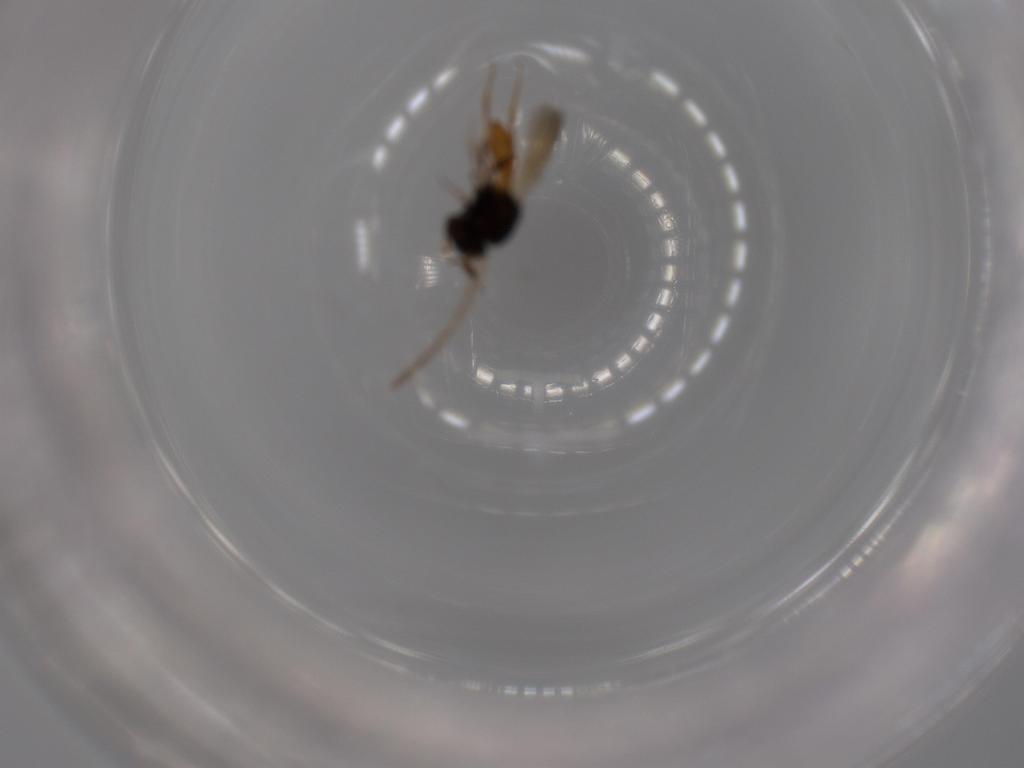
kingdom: Animalia
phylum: Arthropoda
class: Insecta
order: Hymenoptera
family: Scelionidae
